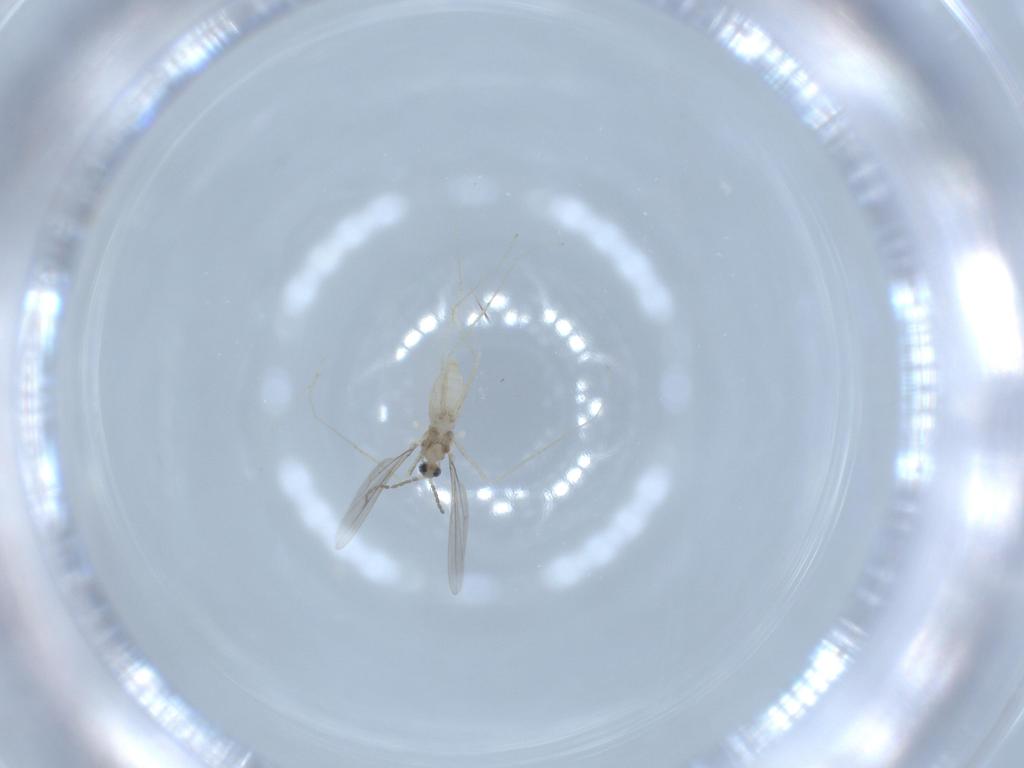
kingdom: Animalia
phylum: Arthropoda
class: Insecta
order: Diptera
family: Cecidomyiidae
